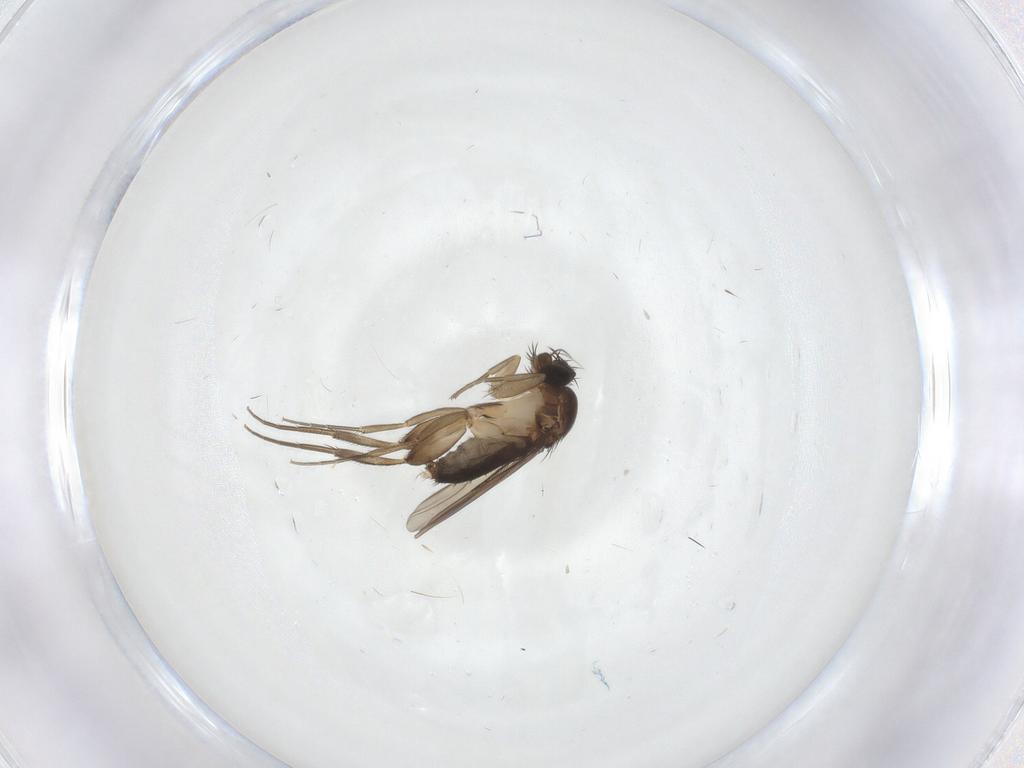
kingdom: Animalia
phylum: Arthropoda
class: Insecta
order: Diptera
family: Phoridae
